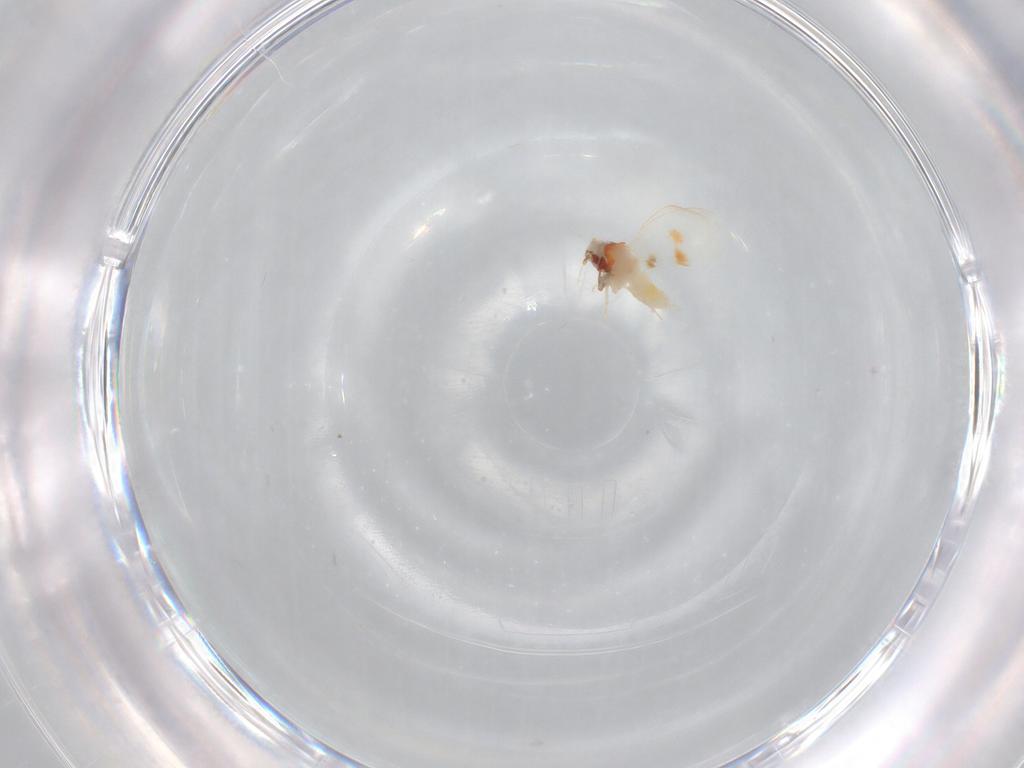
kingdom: Animalia
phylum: Arthropoda
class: Insecta
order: Hemiptera
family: Aleyrodidae
